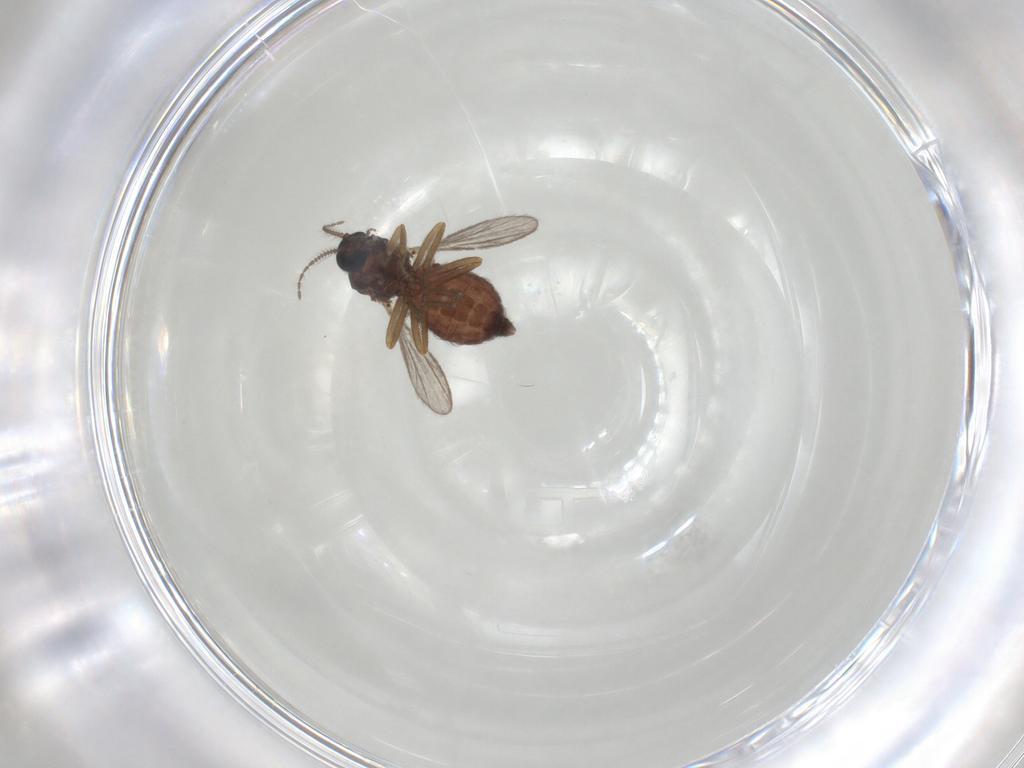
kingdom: Animalia
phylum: Arthropoda
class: Insecta
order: Diptera
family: Ceratopogonidae
